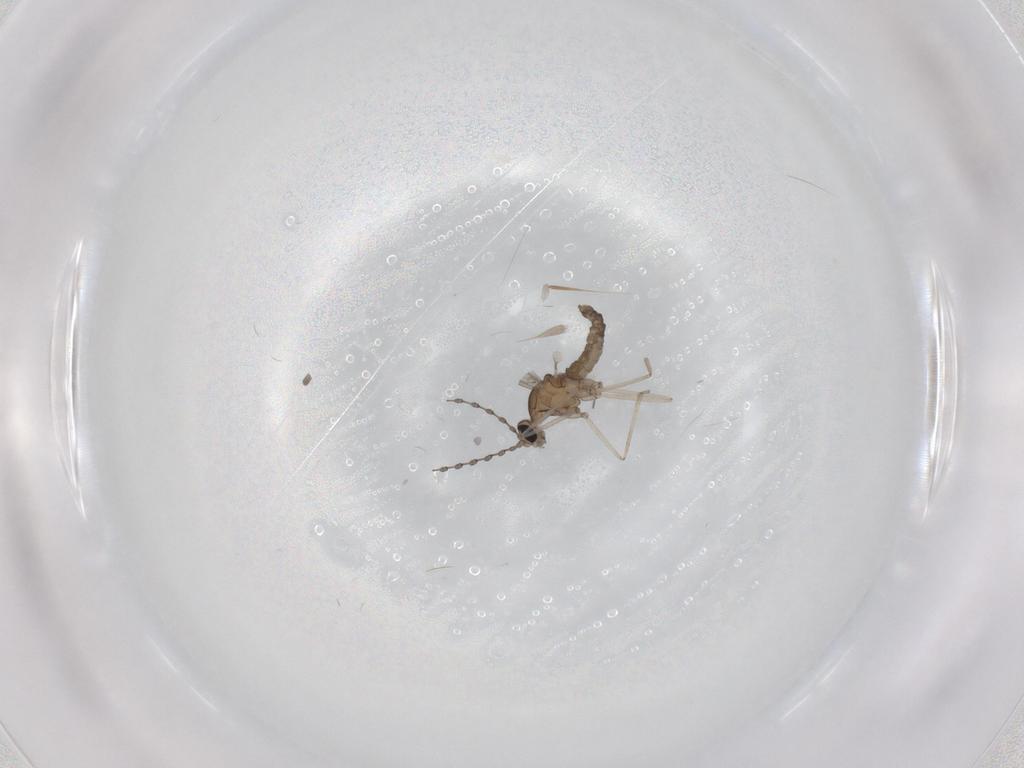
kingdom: Animalia
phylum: Arthropoda
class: Insecta
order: Diptera
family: Cecidomyiidae
